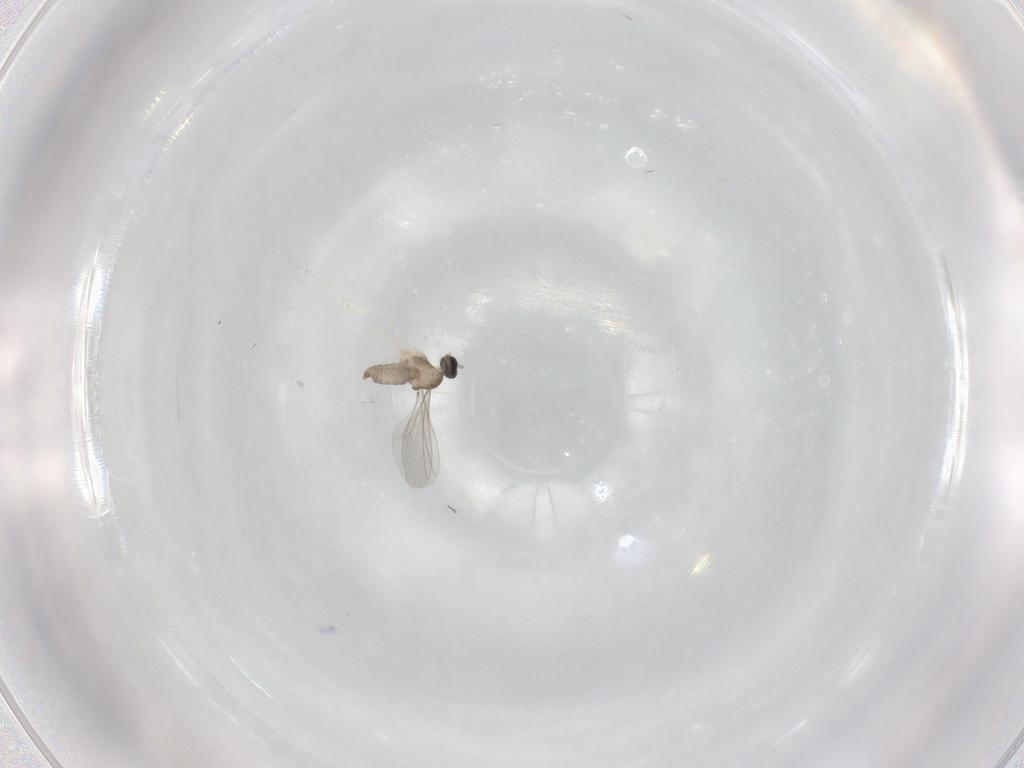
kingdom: Animalia
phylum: Arthropoda
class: Insecta
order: Diptera
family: Cecidomyiidae
